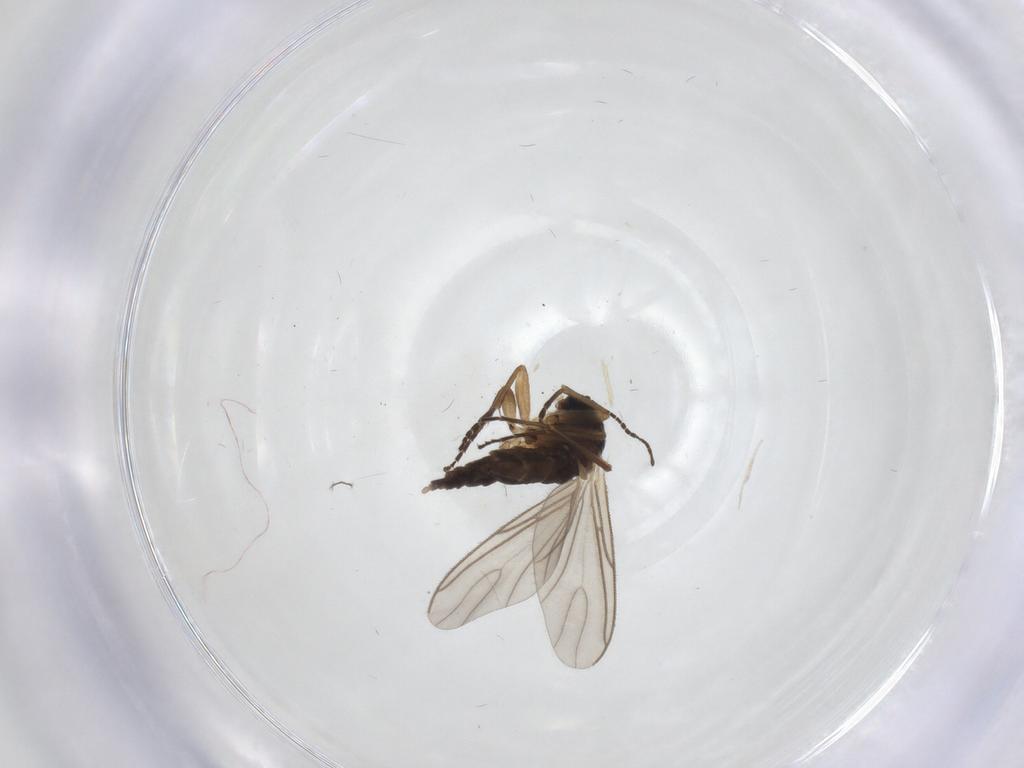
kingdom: Animalia
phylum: Arthropoda
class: Insecta
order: Diptera
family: Sciaridae
